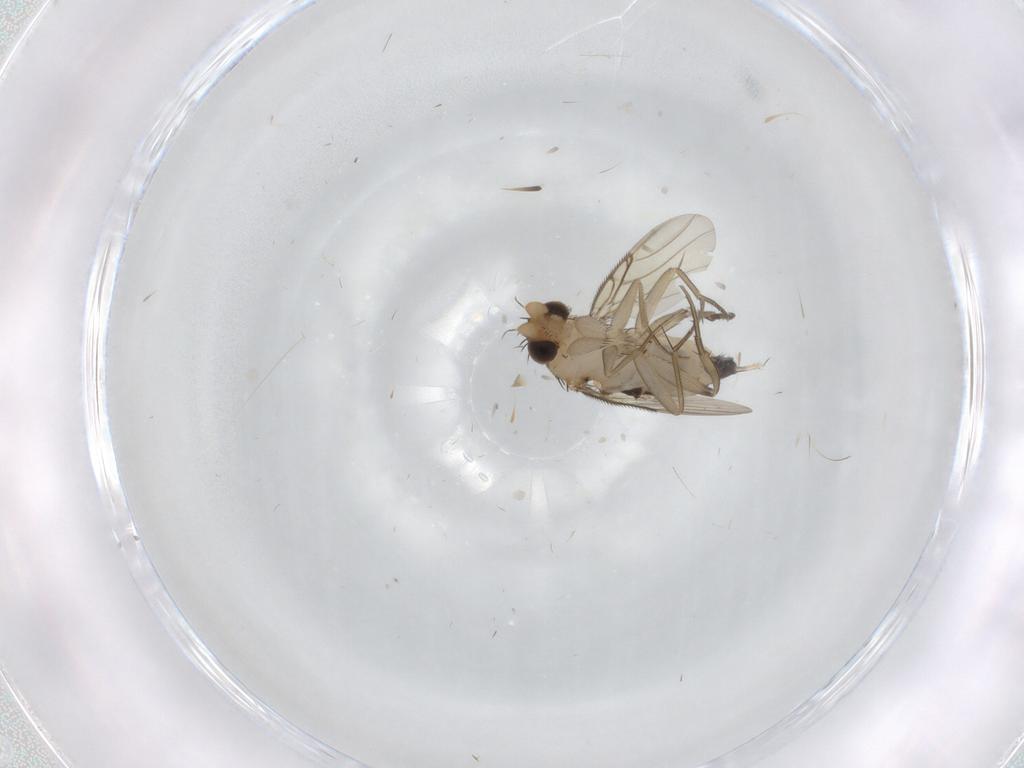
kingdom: Animalia
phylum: Arthropoda
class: Insecta
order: Diptera
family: Phoridae
